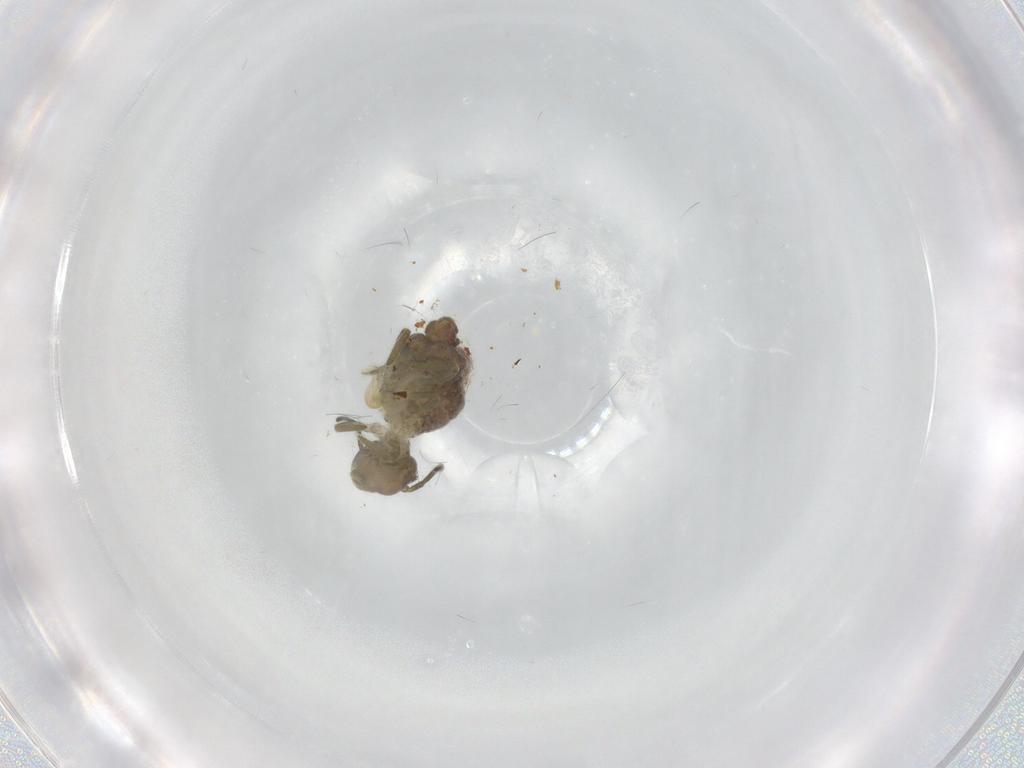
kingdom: Animalia
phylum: Arthropoda
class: Collembola
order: Symphypleona
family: Sminthuridae
